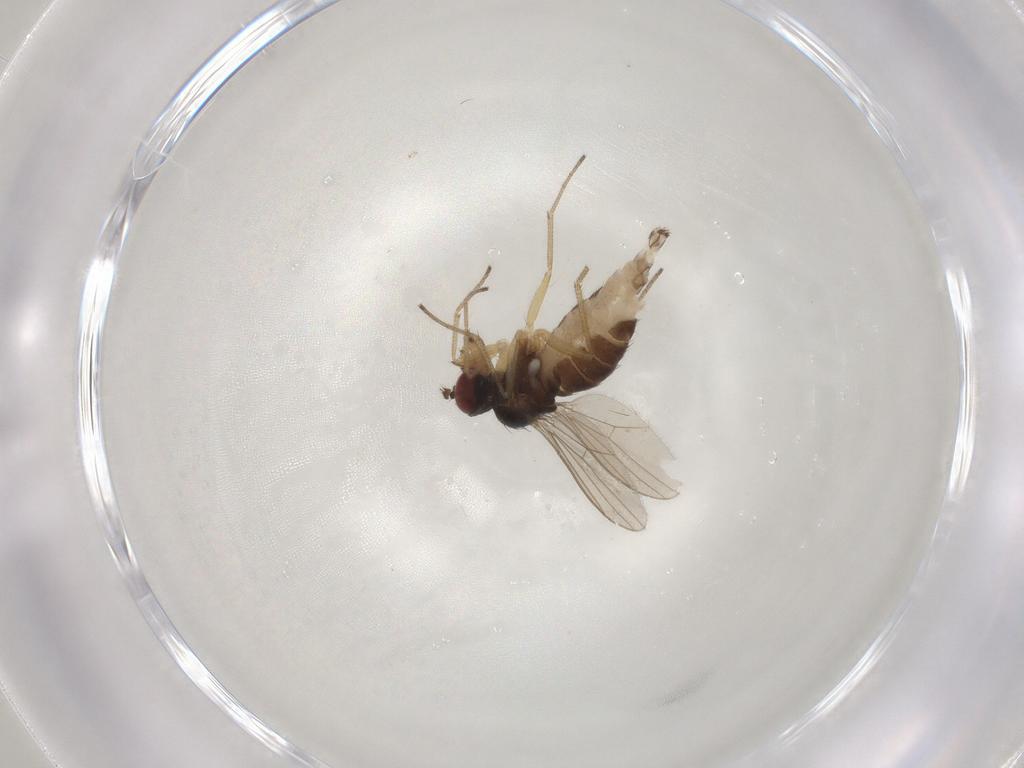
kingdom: Animalia
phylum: Arthropoda
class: Insecta
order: Diptera
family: Dolichopodidae
